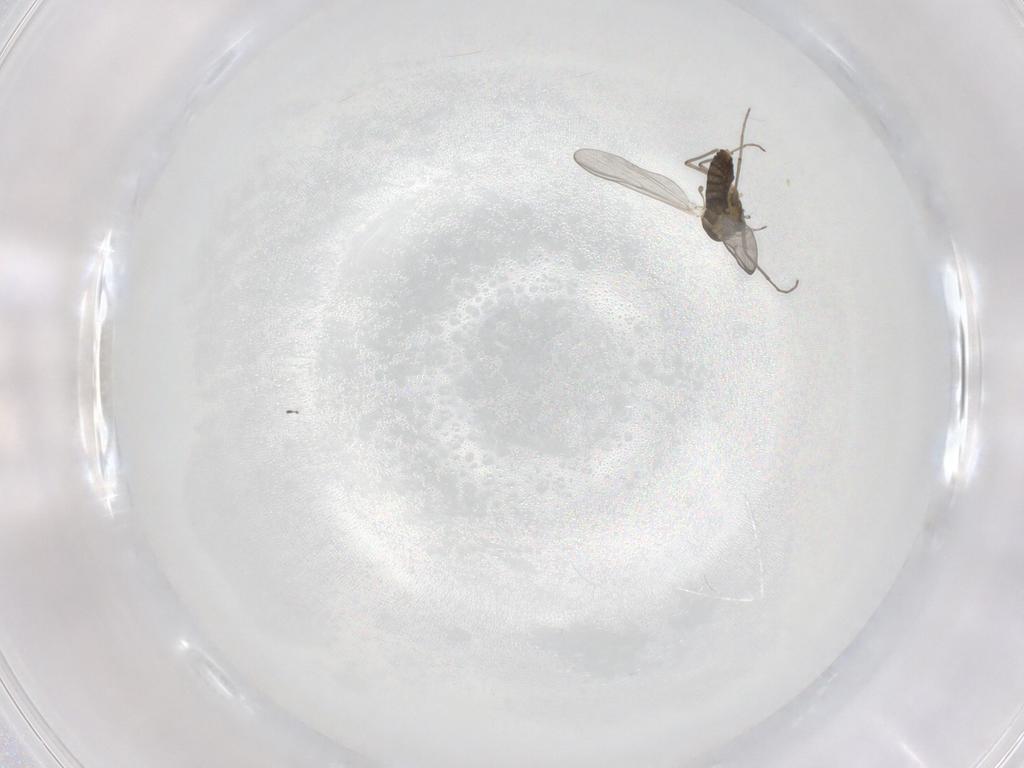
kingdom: Animalia
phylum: Arthropoda
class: Insecta
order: Diptera
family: Chironomidae
